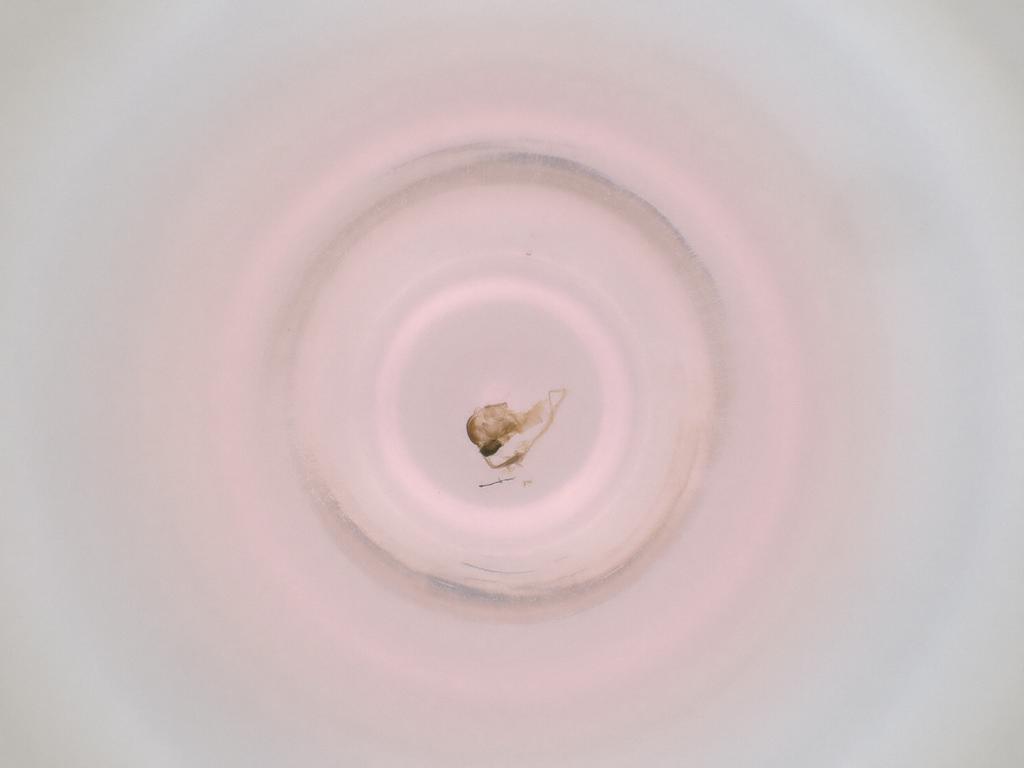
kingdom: Animalia
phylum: Arthropoda
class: Insecta
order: Diptera
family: Cecidomyiidae
